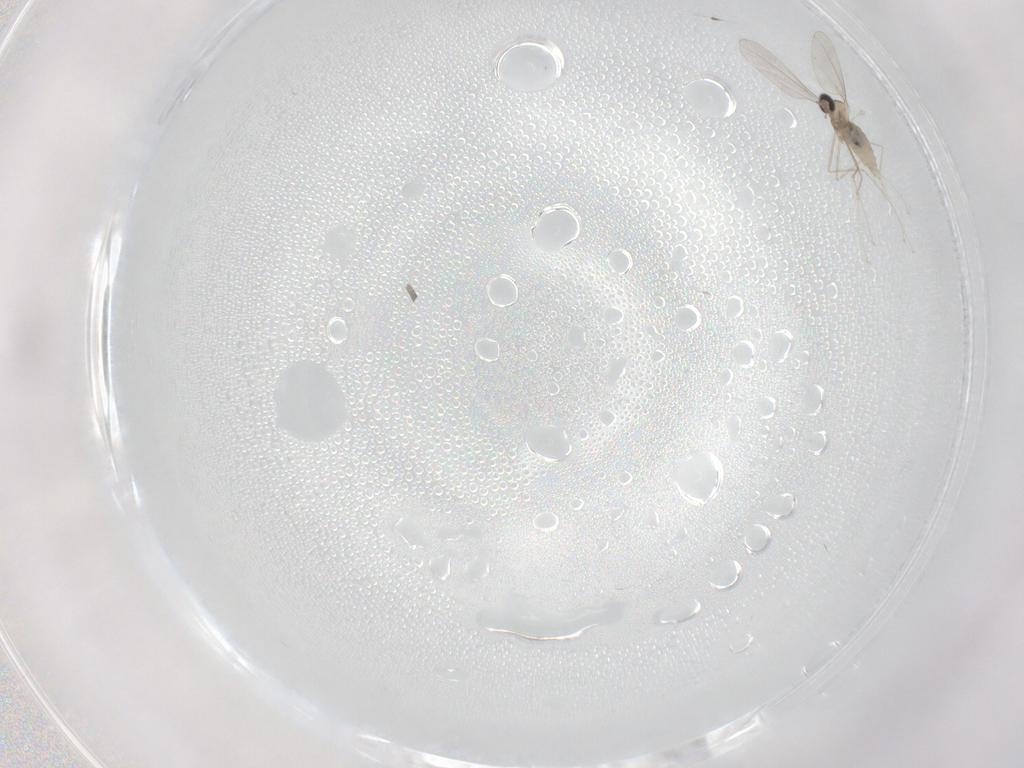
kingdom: Animalia
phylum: Arthropoda
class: Insecta
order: Diptera
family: Cecidomyiidae
